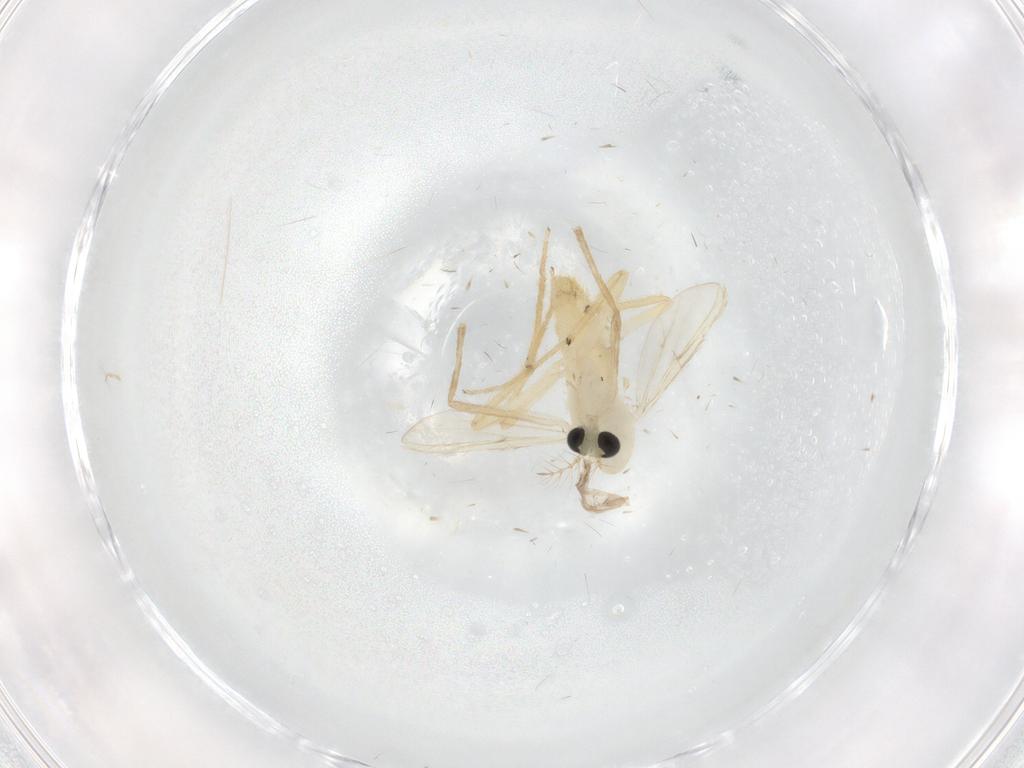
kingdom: Animalia
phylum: Arthropoda
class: Insecta
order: Diptera
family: Chironomidae
